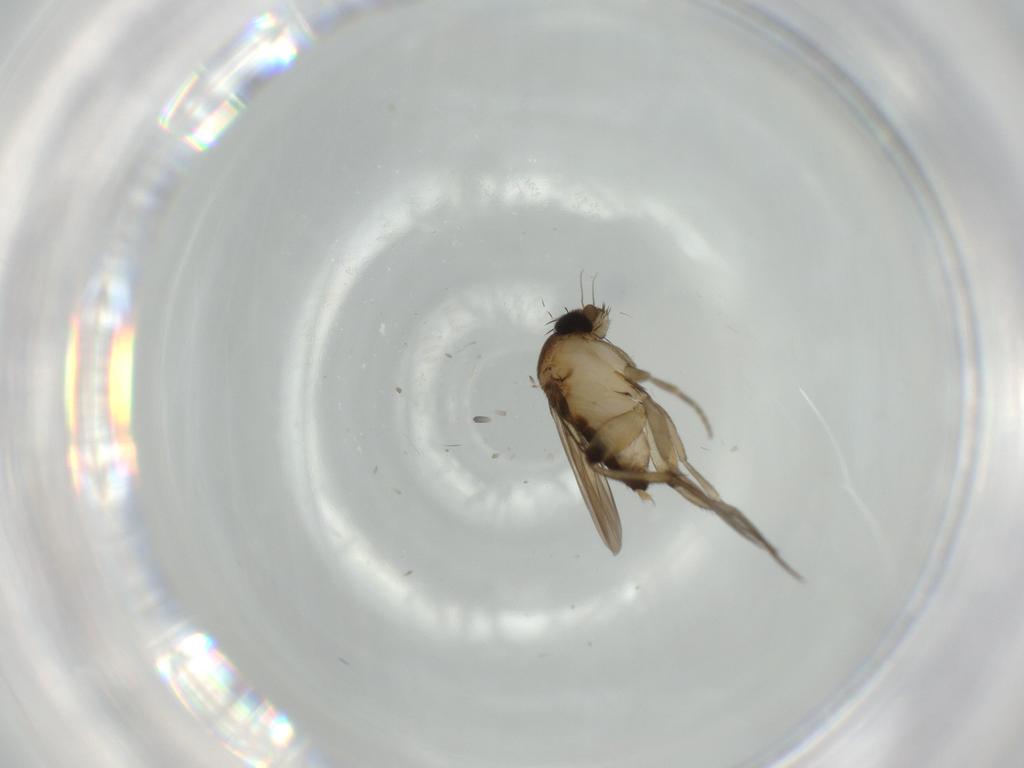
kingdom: Animalia
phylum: Arthropoda
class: Insecta
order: Diptera
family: Phoridae
